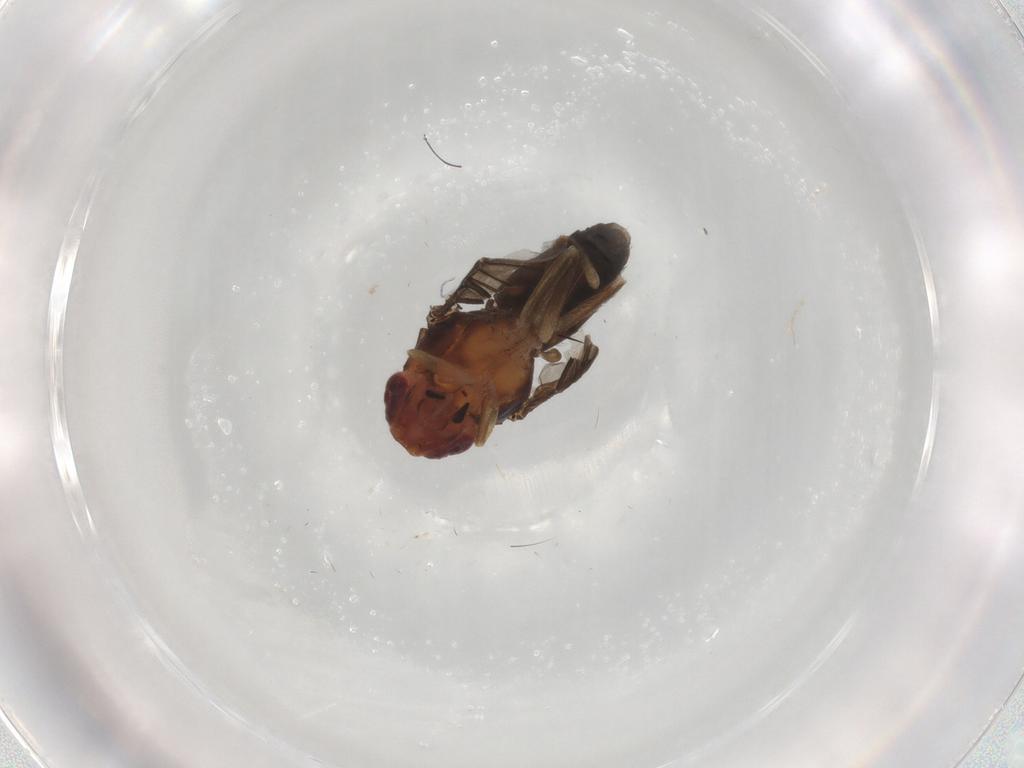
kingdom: Animalia
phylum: Arthropoda
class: Insecta
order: Diptera
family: Drosophilidae
